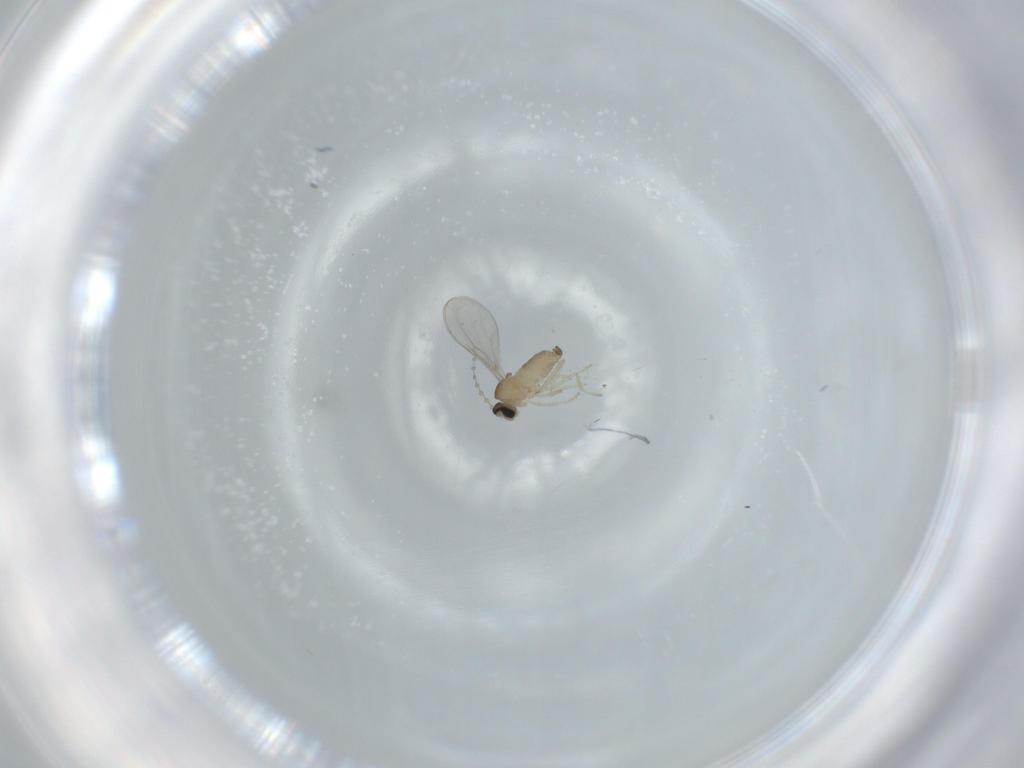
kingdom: Animalia
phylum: Arthropoda
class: Insecta
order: Diptera
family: Cecidomyiidae
